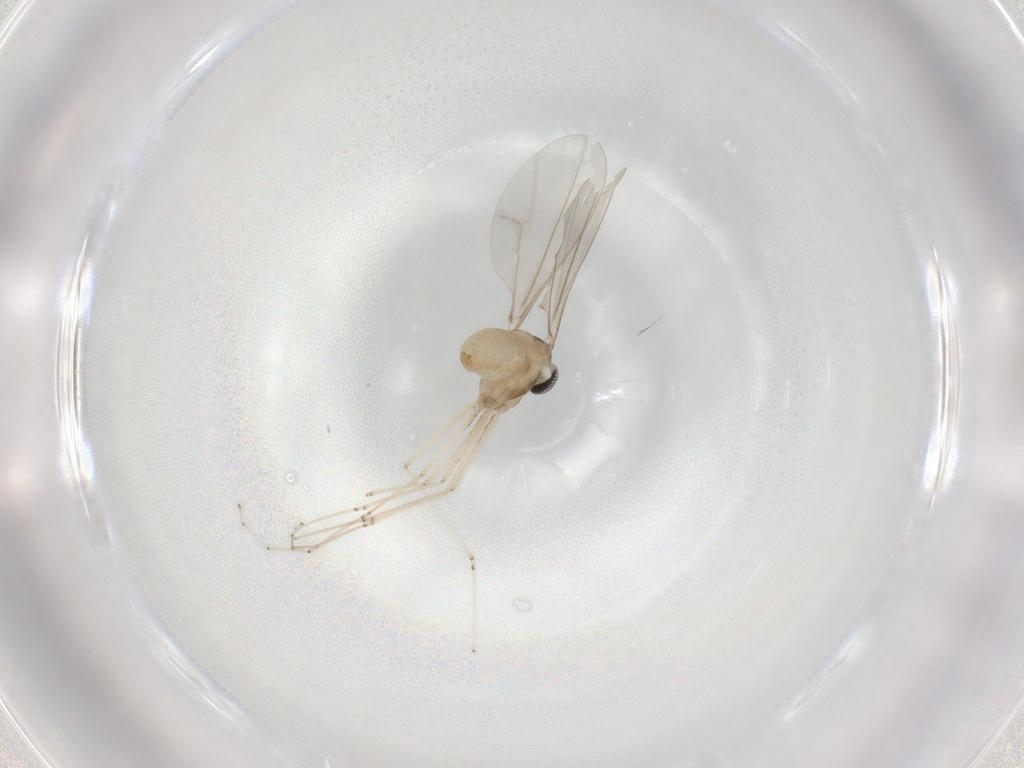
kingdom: Animalia
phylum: Arthropoda
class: Insecta
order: Diptera
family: Cecidomyiidae
